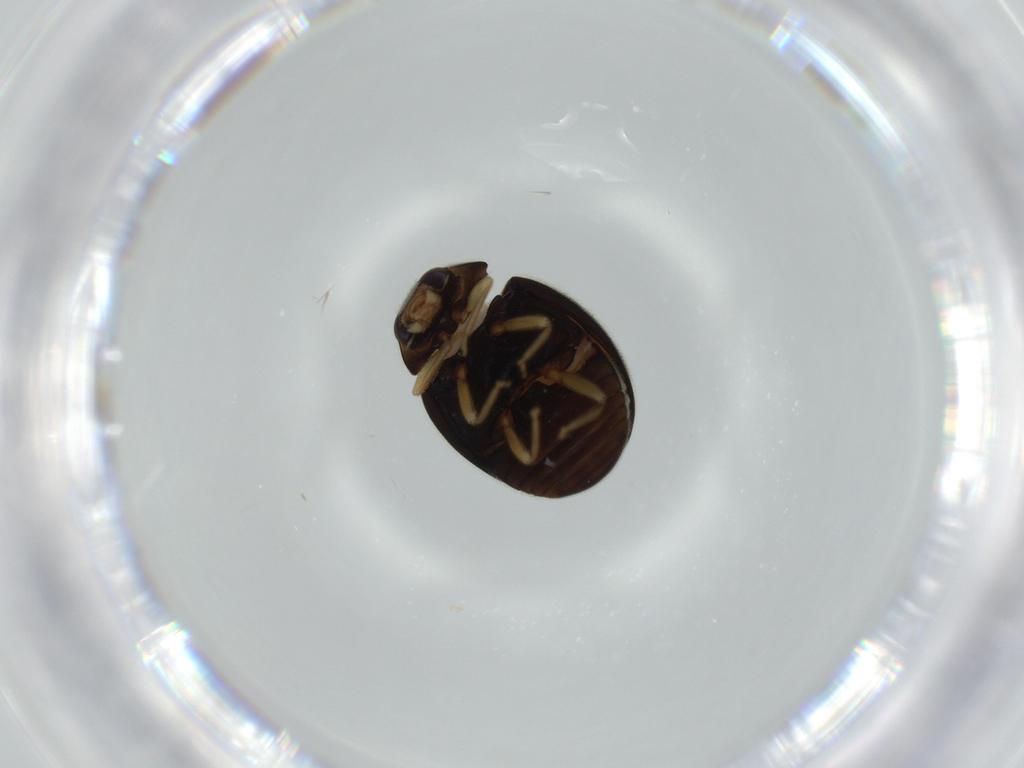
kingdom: Animalia
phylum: Arthropoda
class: Insecta
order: Coleoptera
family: Coccinellidae
